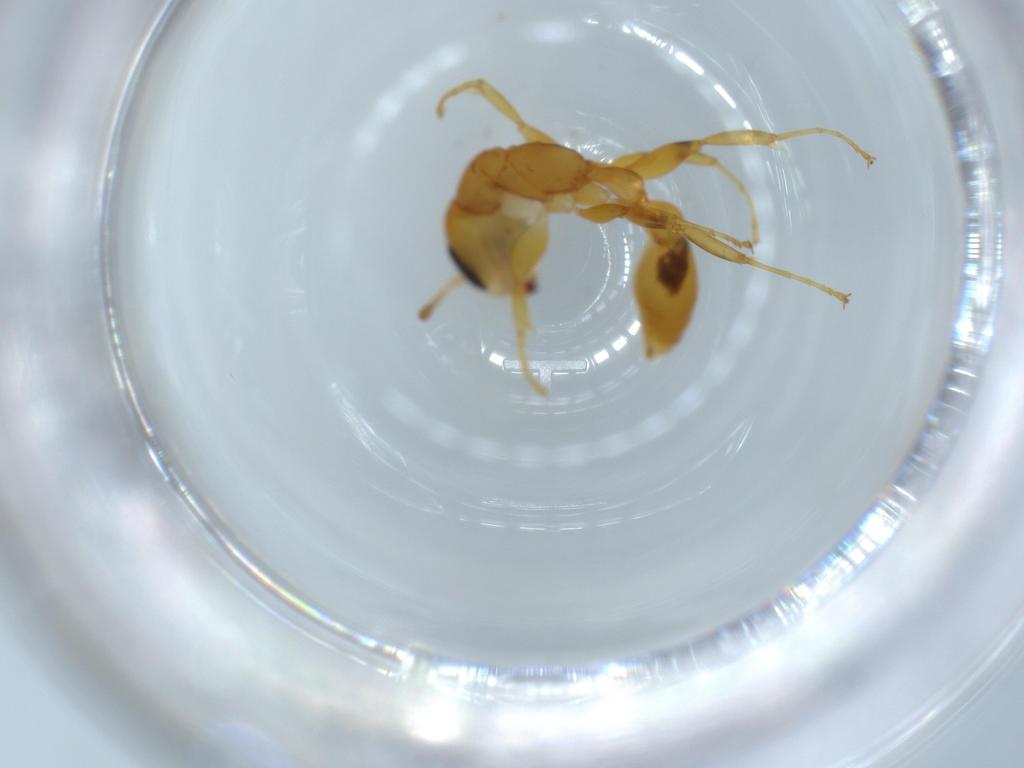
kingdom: Animalia
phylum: Arthropoda
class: Insecta
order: Hymenoptera
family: Formicidae
